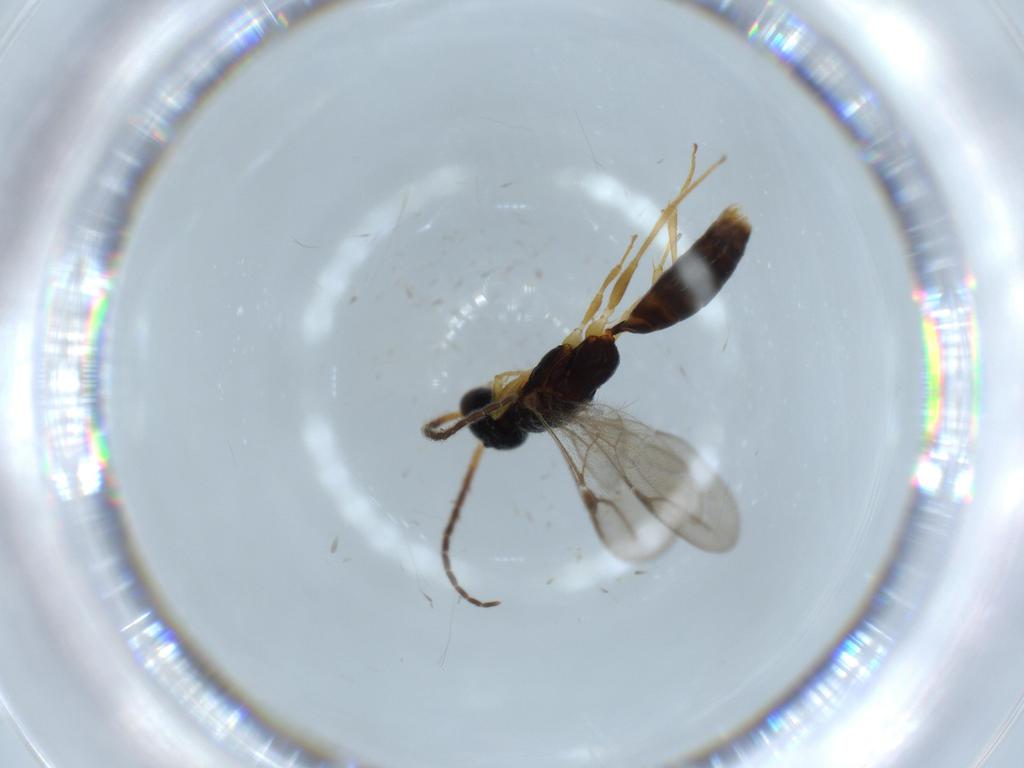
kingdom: Animalia
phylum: Arthropoda
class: Insecta
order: Hymenoptera
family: Bethylidae
